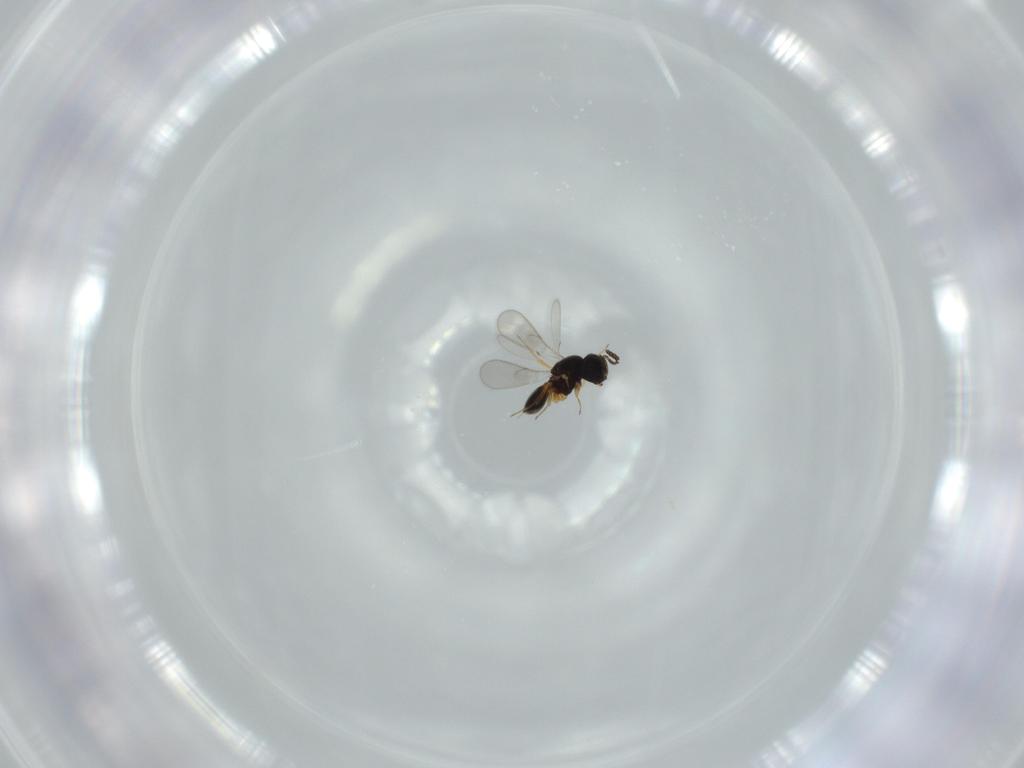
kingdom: Animalia
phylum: Arthropoda
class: Insecta
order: Hymenoptera
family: Scelionidae
